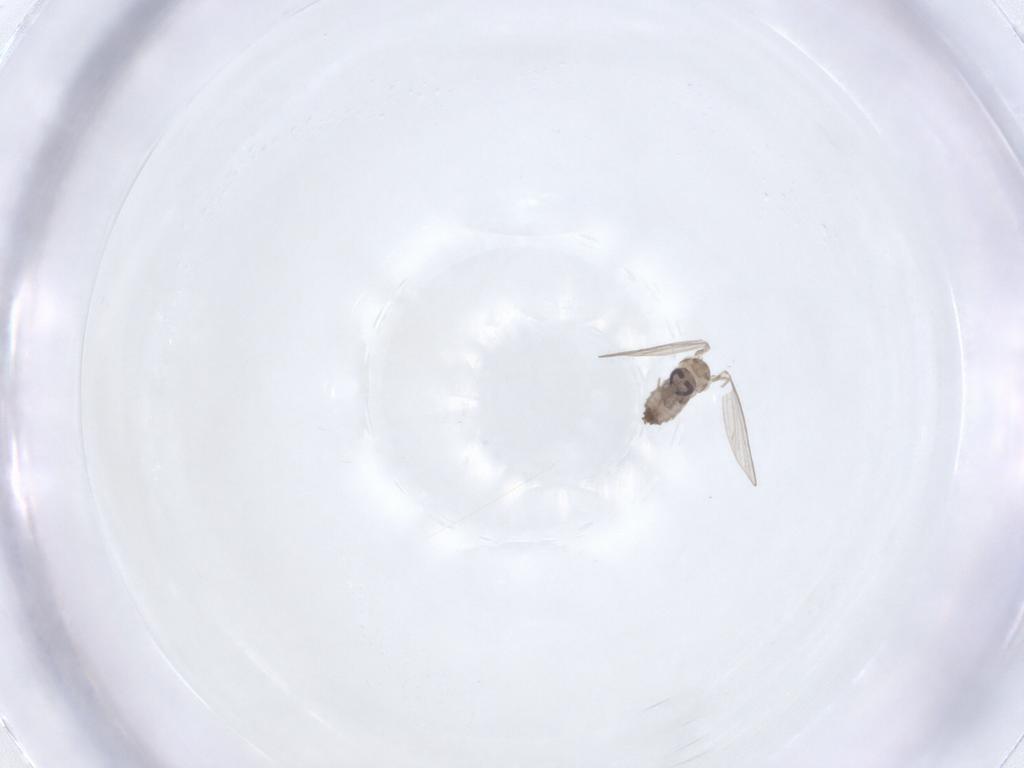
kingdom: Animalia
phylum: Arthropoda
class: Insecta
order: Diptera
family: Psychodidae
